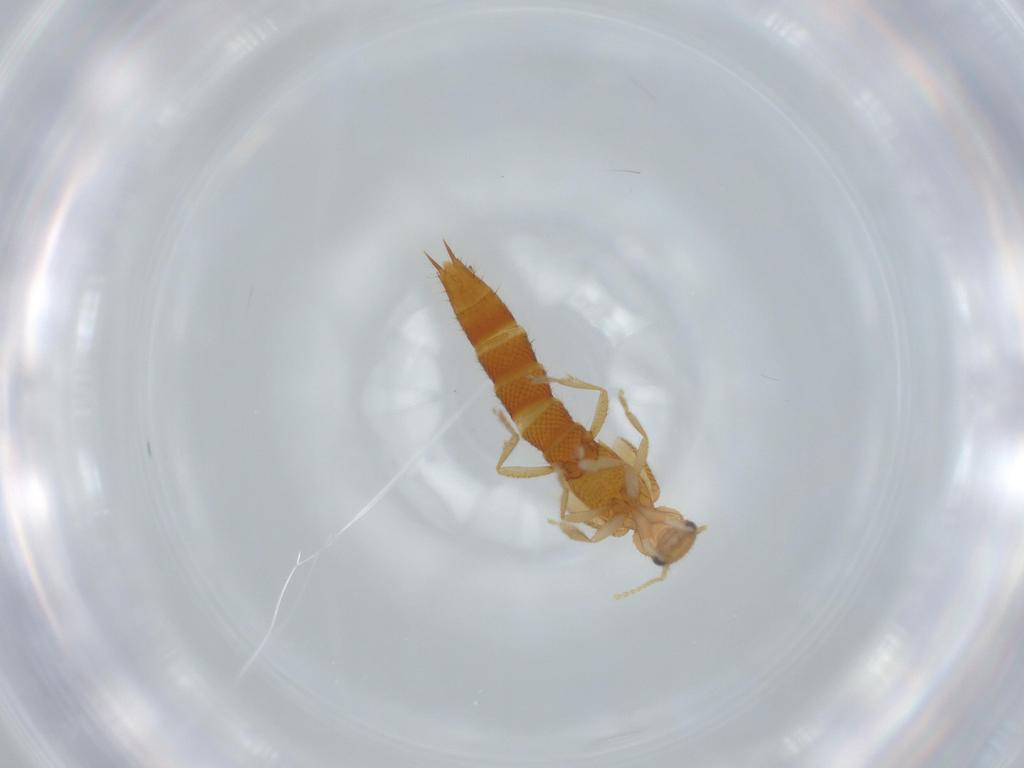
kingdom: Animalia
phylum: Arthropoda
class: Insecta
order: Coleoptera
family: Staphylinidae
